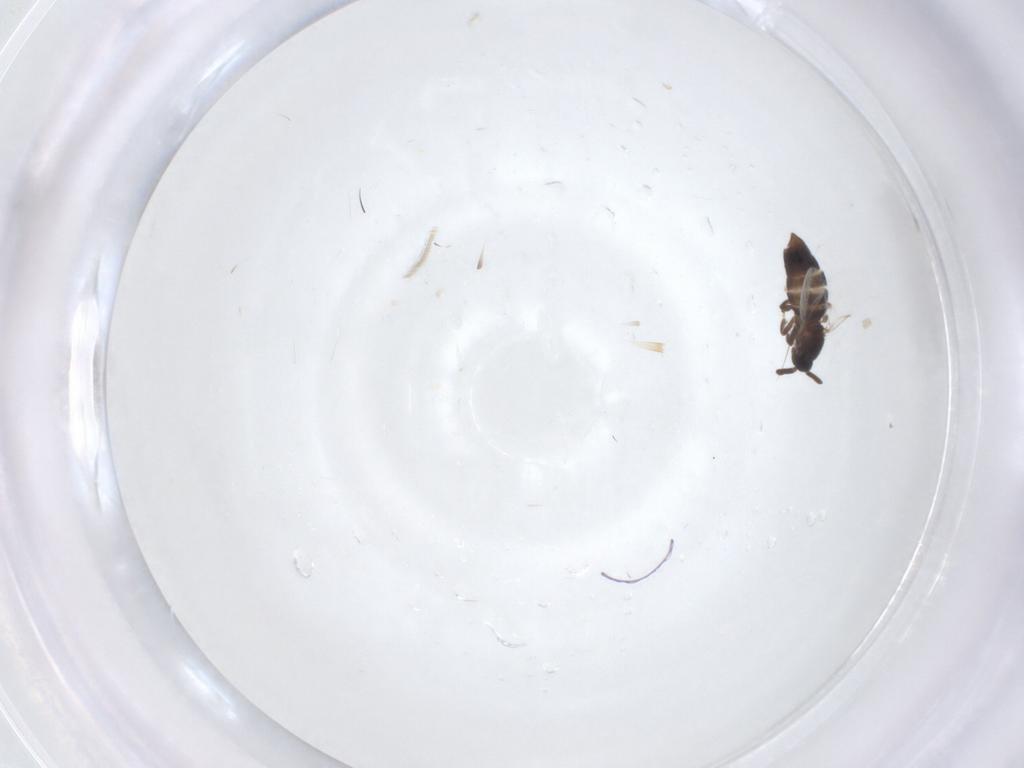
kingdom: Animalia
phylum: Arthropoda
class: Insecta
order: Diptera
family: Scatopsidae
